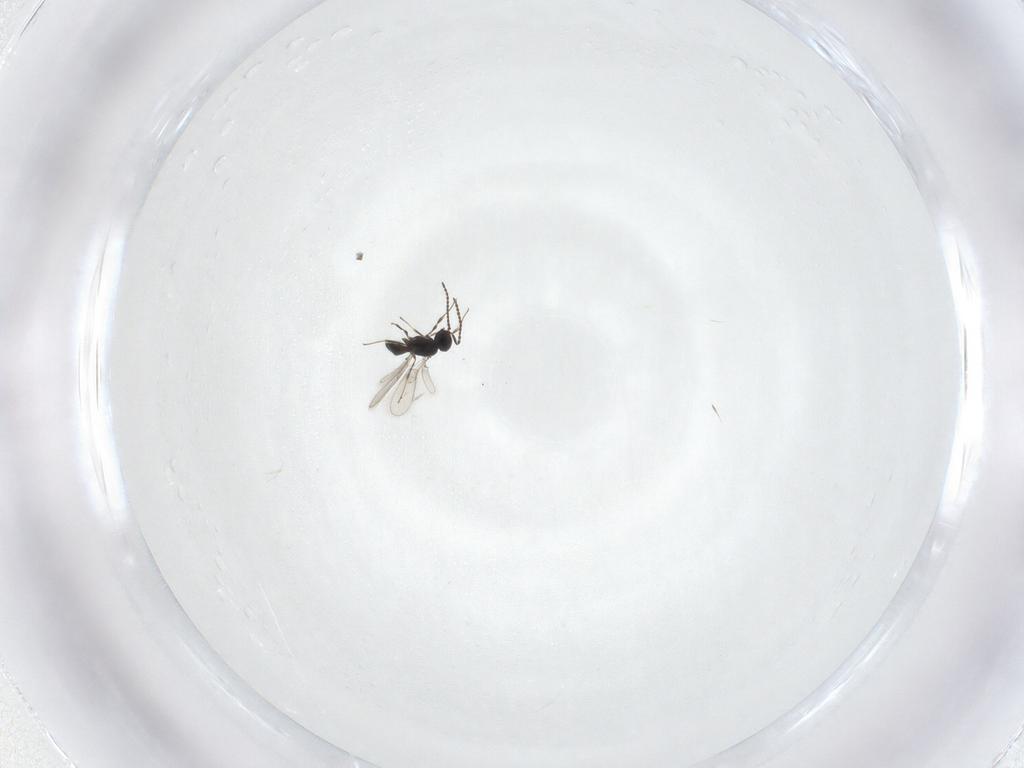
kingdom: Animalia
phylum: Arthropoda
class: Insecta
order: Hymenoptera
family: Scelionidae
